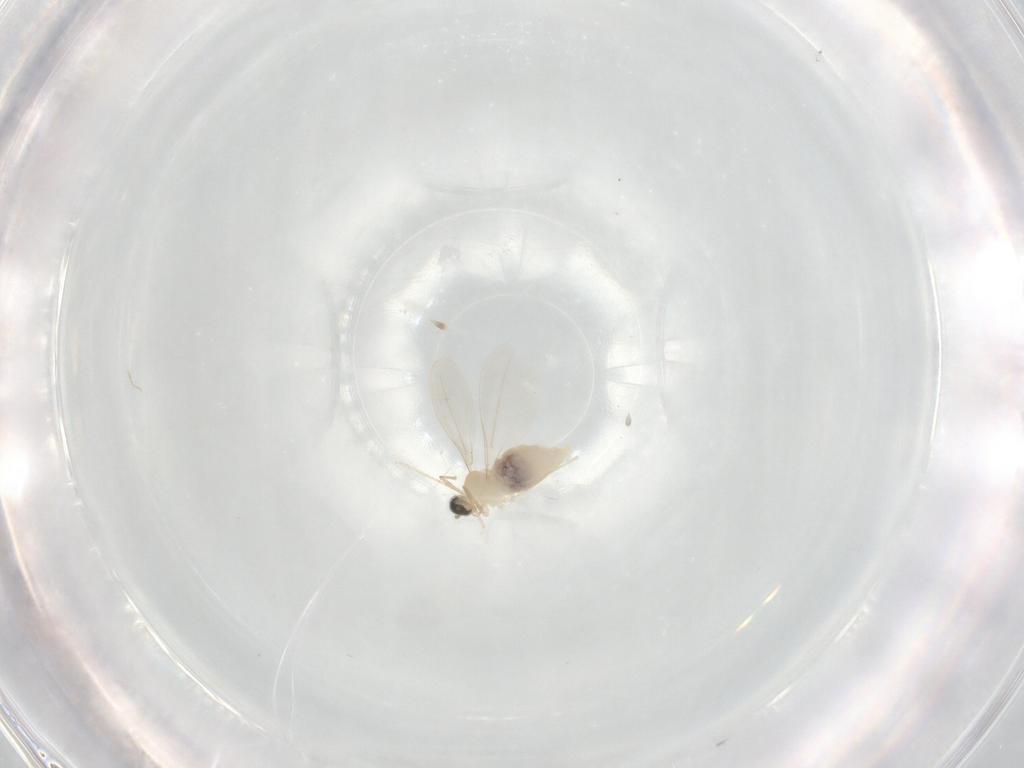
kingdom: Animalia
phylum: Arthropoda
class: Insecta
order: Diptera
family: Cecidomyiidae
